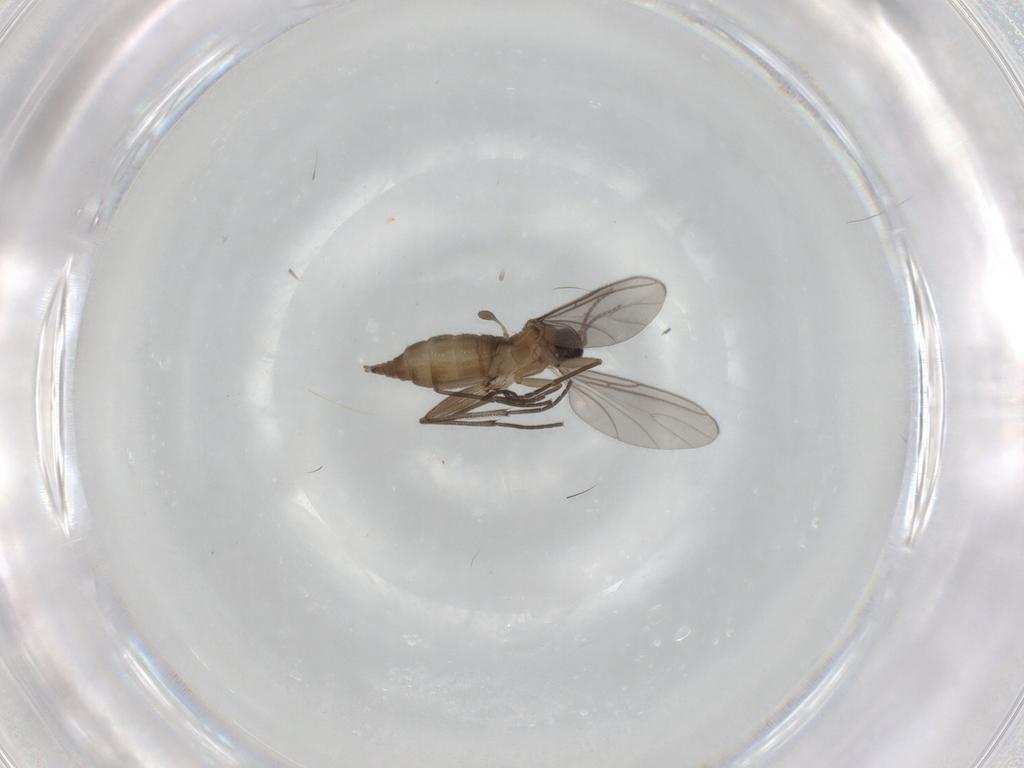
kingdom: Animalia
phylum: Arthropoda
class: Insecta
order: Diptera
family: Sciaridae
